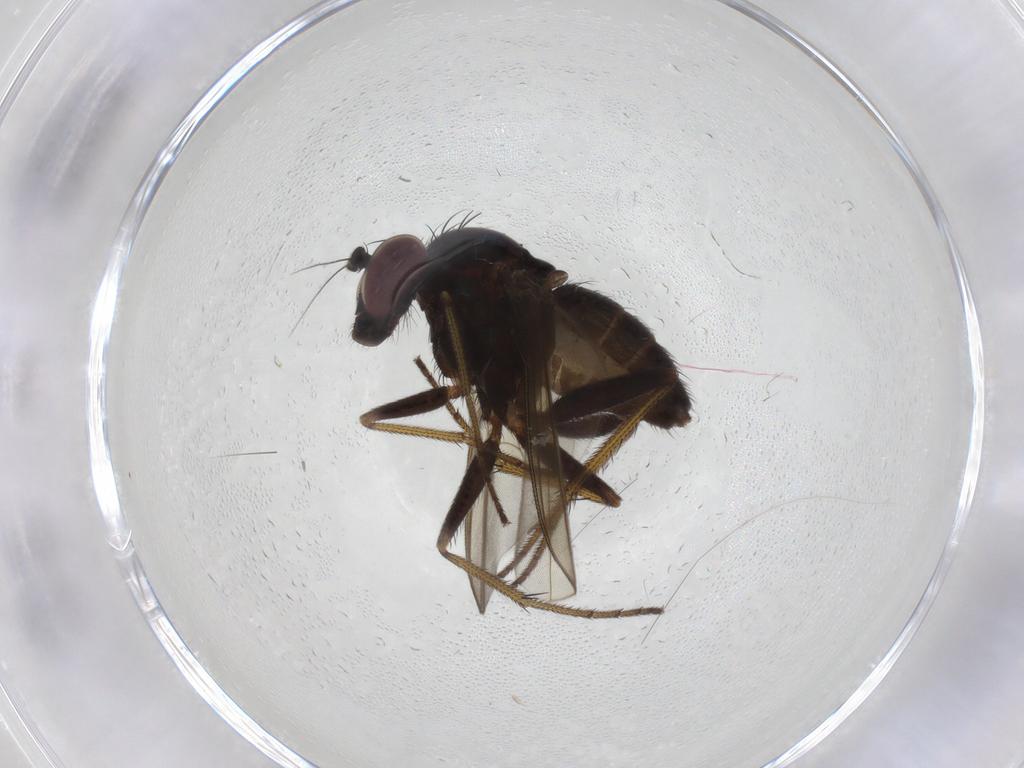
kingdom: Animalia
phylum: Arthropoda
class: Insecta
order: Diptera
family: Dolichopodidae
